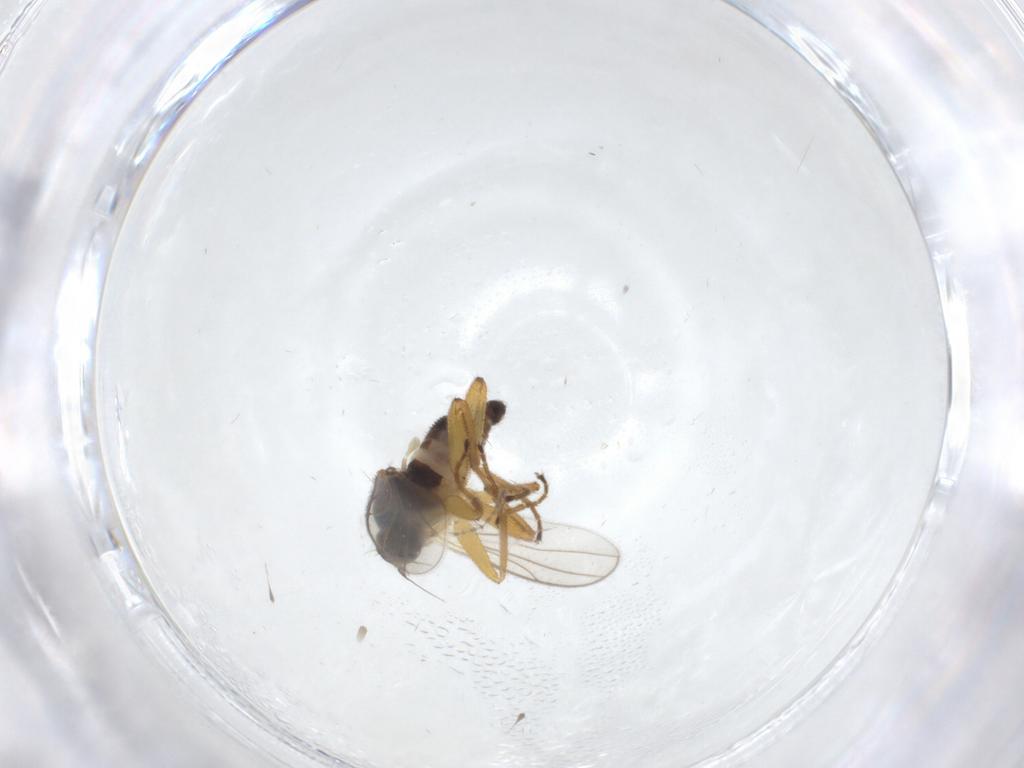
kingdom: Animalia
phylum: Arthropoda
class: Insecta
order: Diptera
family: Hybotidae
